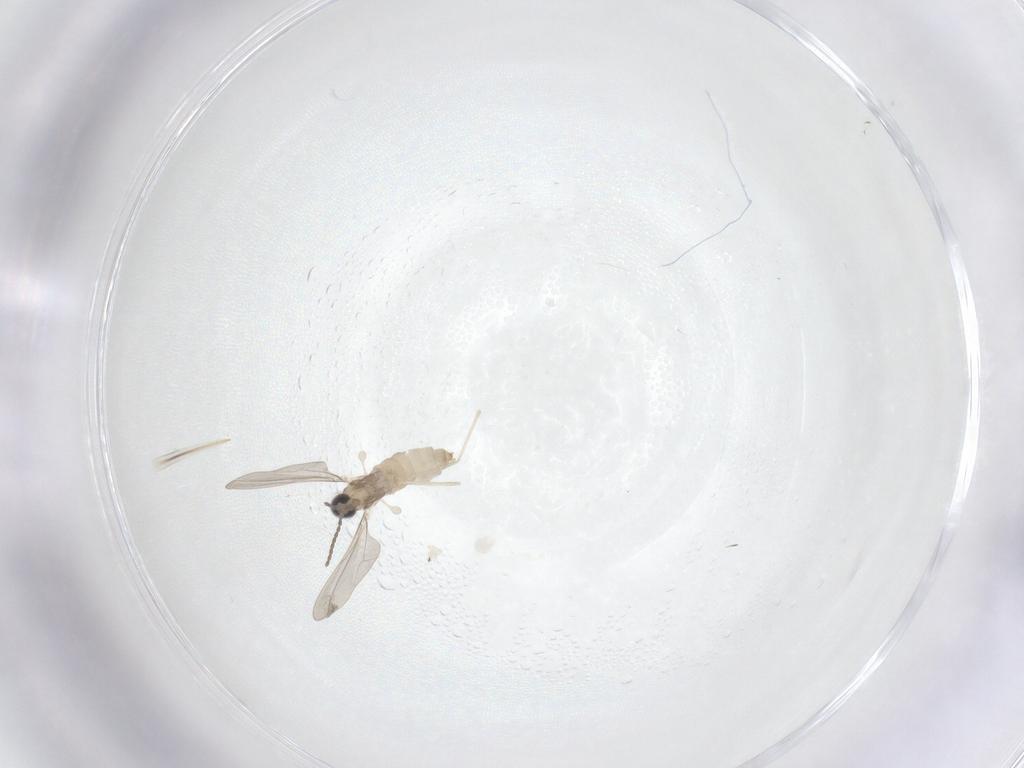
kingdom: Animalia
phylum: Arthropoda
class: Insecta
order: Diptera
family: Cecidomyiidae
